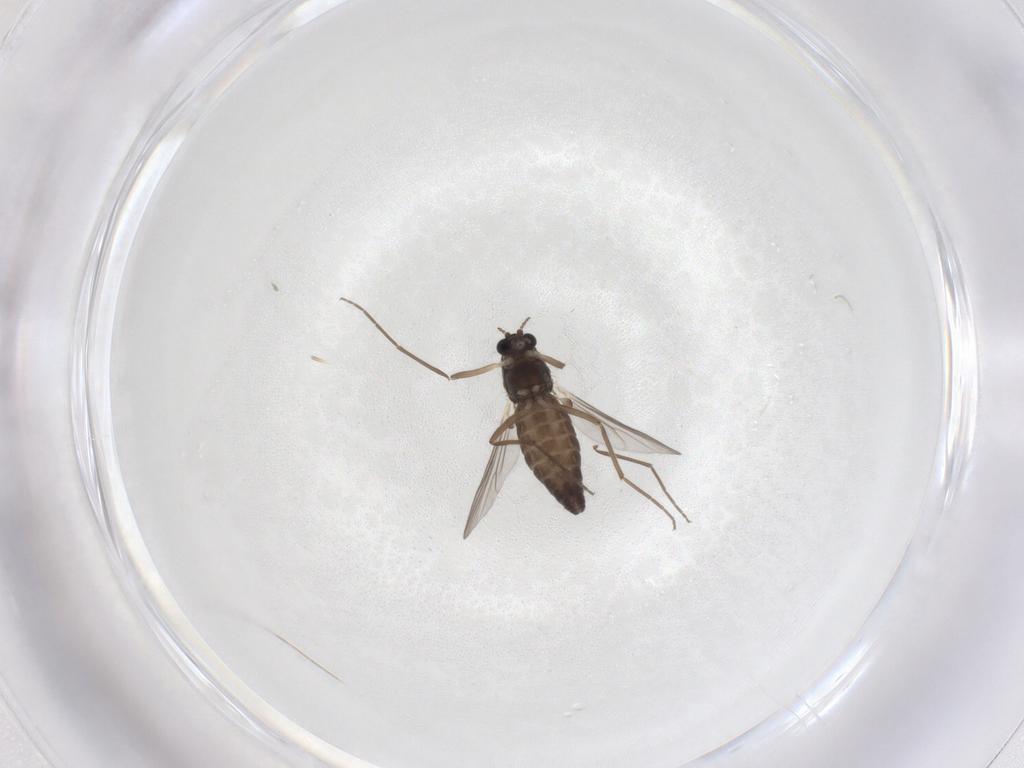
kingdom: Animalia
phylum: Arthropoda
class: Insecta
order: Diptera
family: Chironomidae
